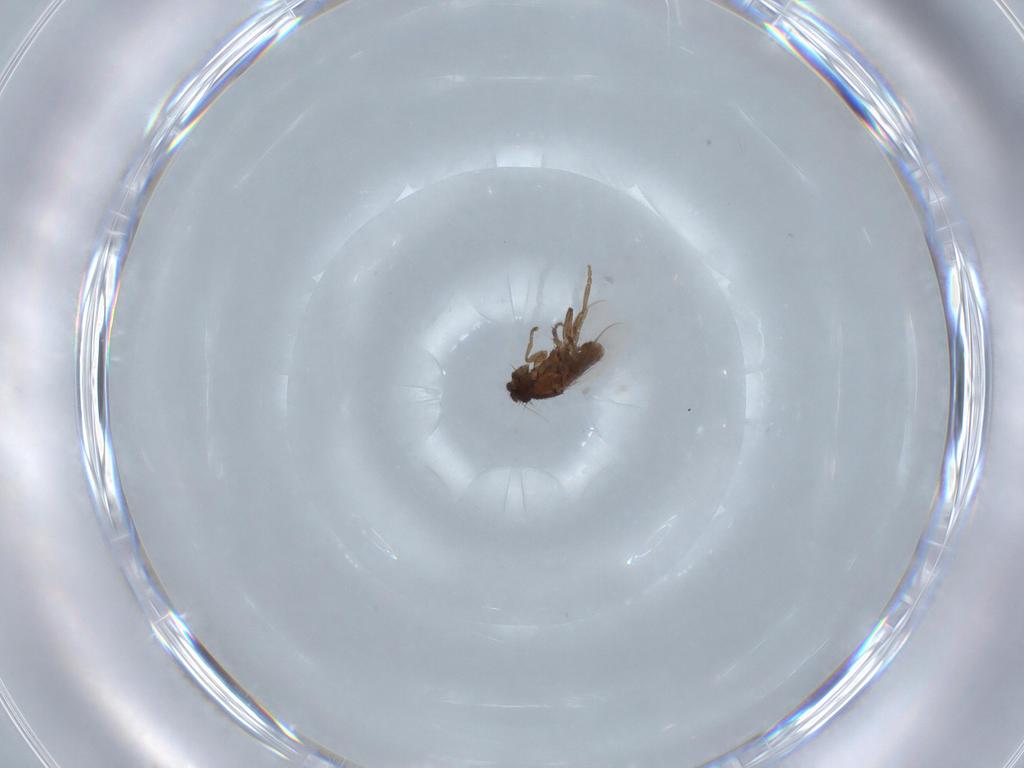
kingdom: Animalia
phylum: Arthropoda
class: Insecta
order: Diptera
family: Sphaeroceridae
